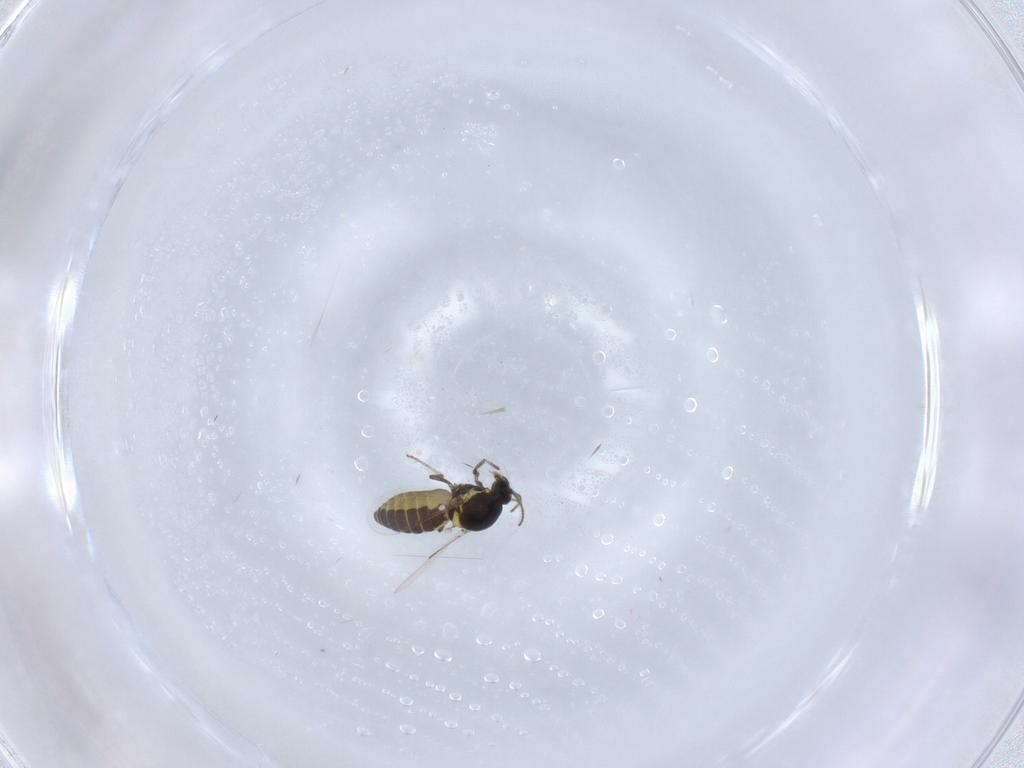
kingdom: Animalia
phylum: Arthropoda
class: Insecta
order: Diptera
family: Ceratopogonidae
